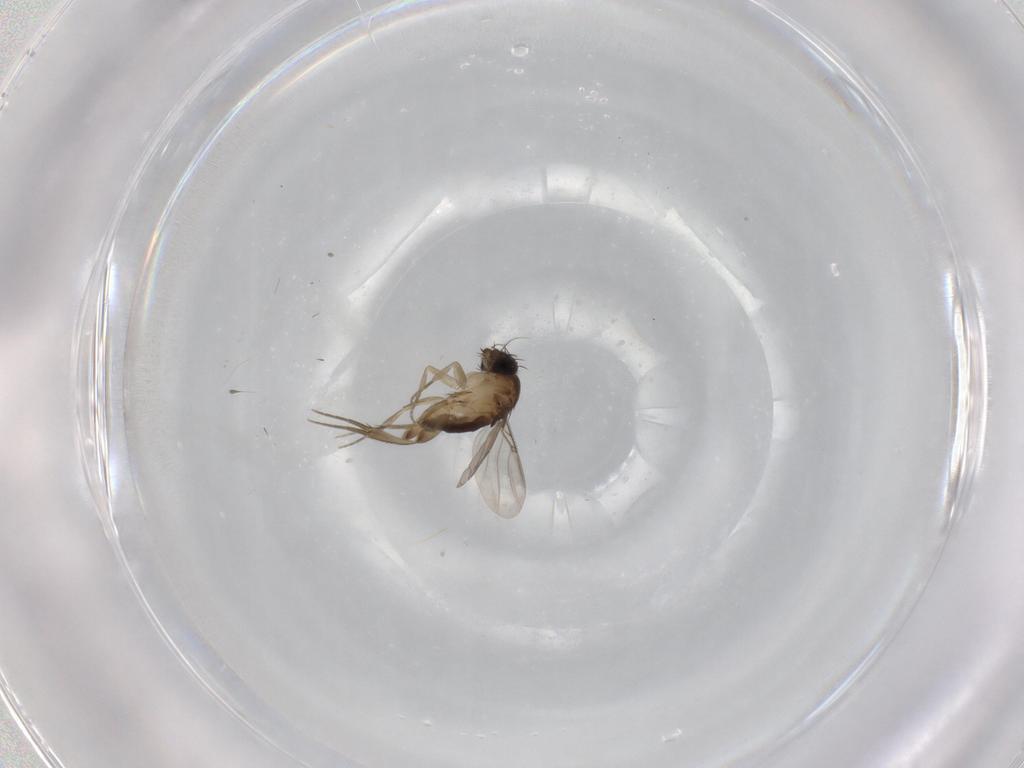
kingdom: Animalia
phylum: Arthropoda
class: Insecta
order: Diptera
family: Phoridae
